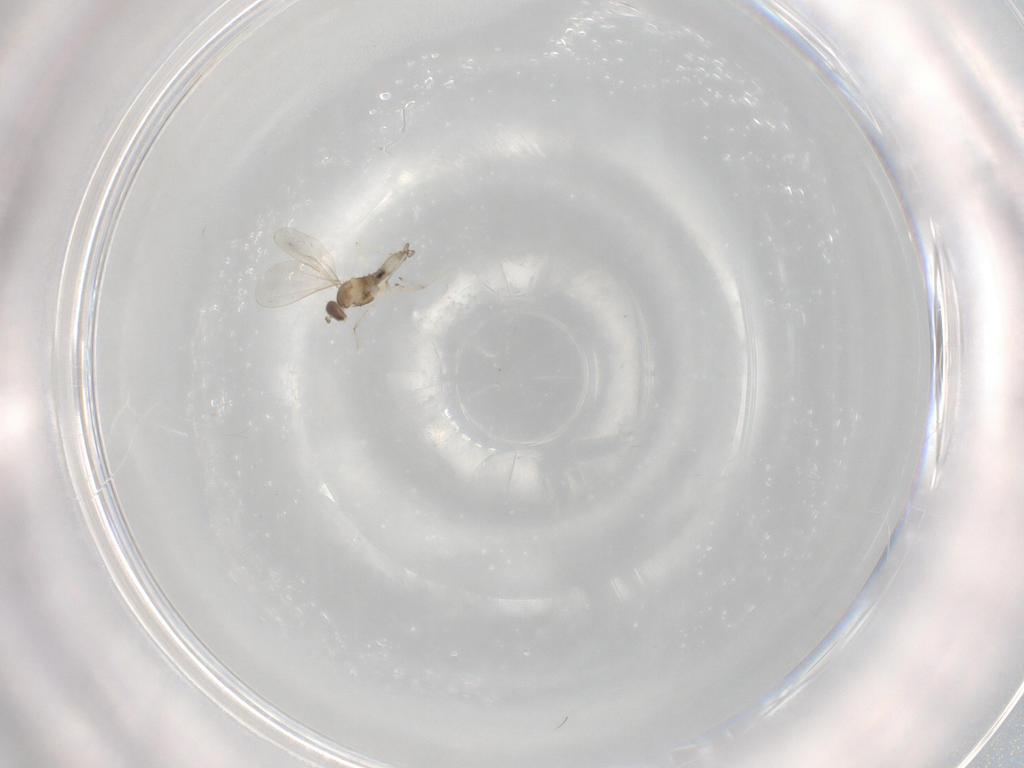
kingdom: Animalia
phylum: Arthropoda
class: Insecta
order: Diptera
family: Cecidomyiidae
